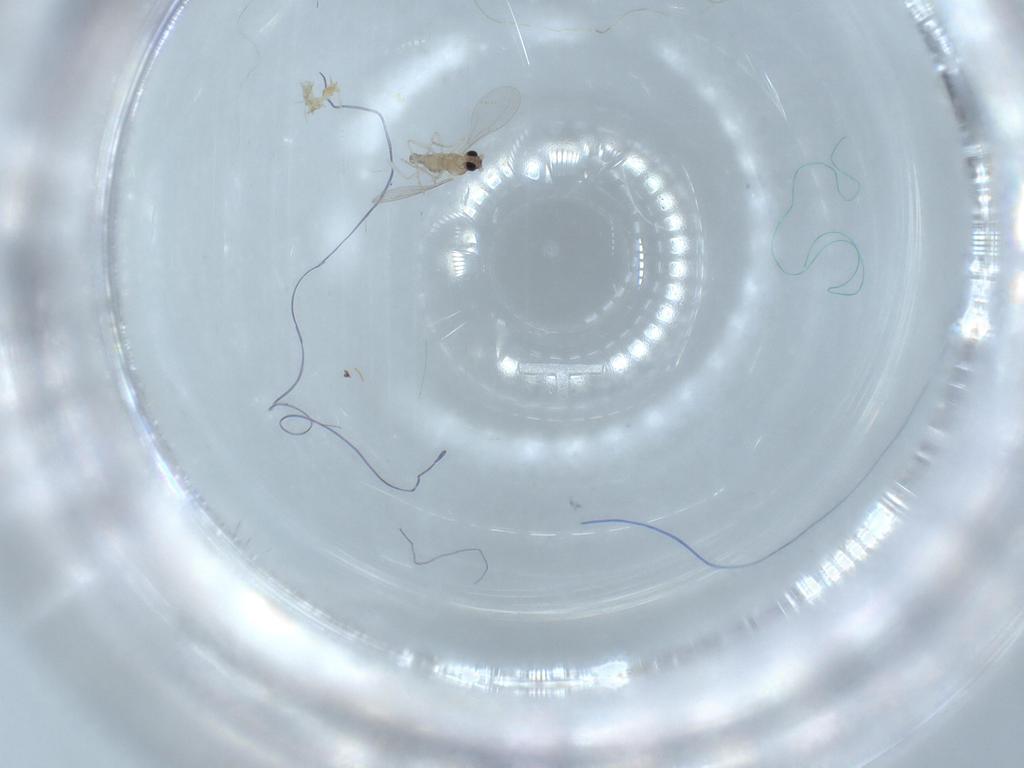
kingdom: Animalia
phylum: Arthropoda
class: Insecta
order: Diptera
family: Cecidomyiidae
